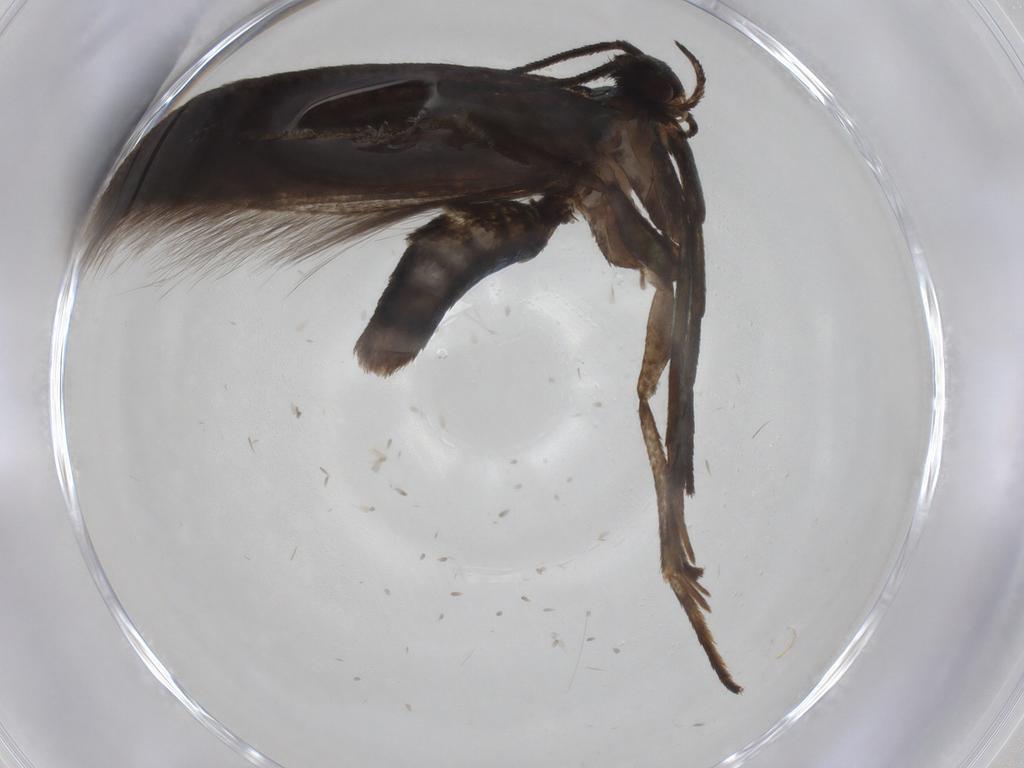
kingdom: Animalia
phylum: Arthropoda
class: Insecta
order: Lepidoptera
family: Argyresthiidae
